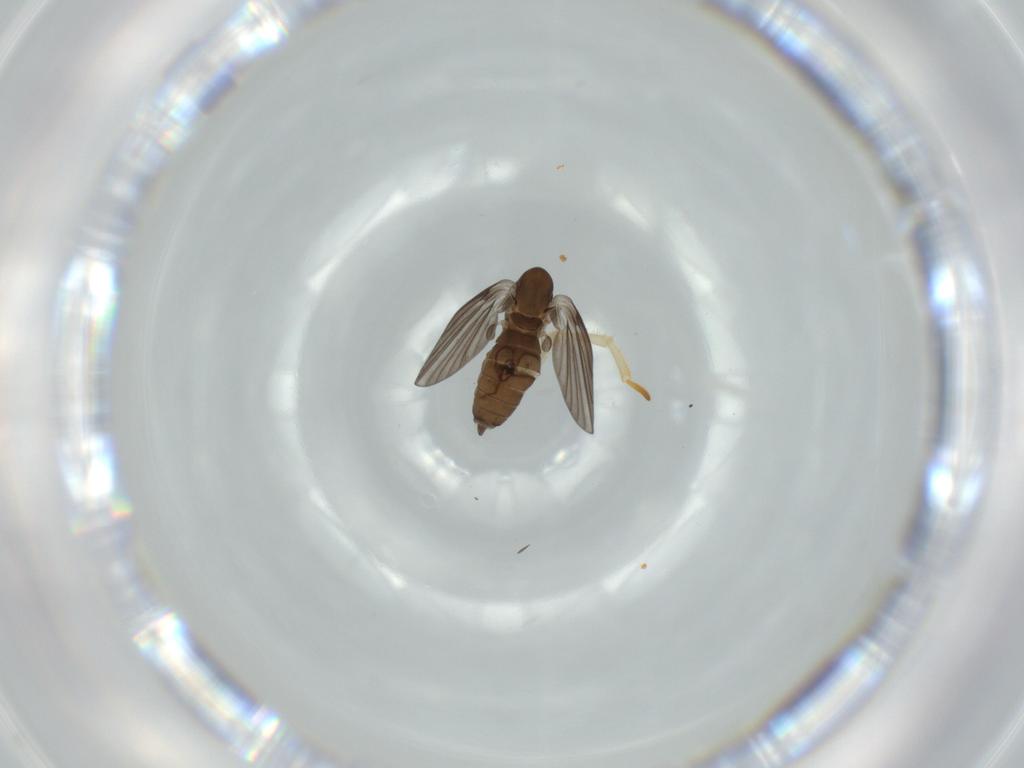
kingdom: Animalia
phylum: Arthropoda
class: Insecta
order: Diptera
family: Psychodidae
